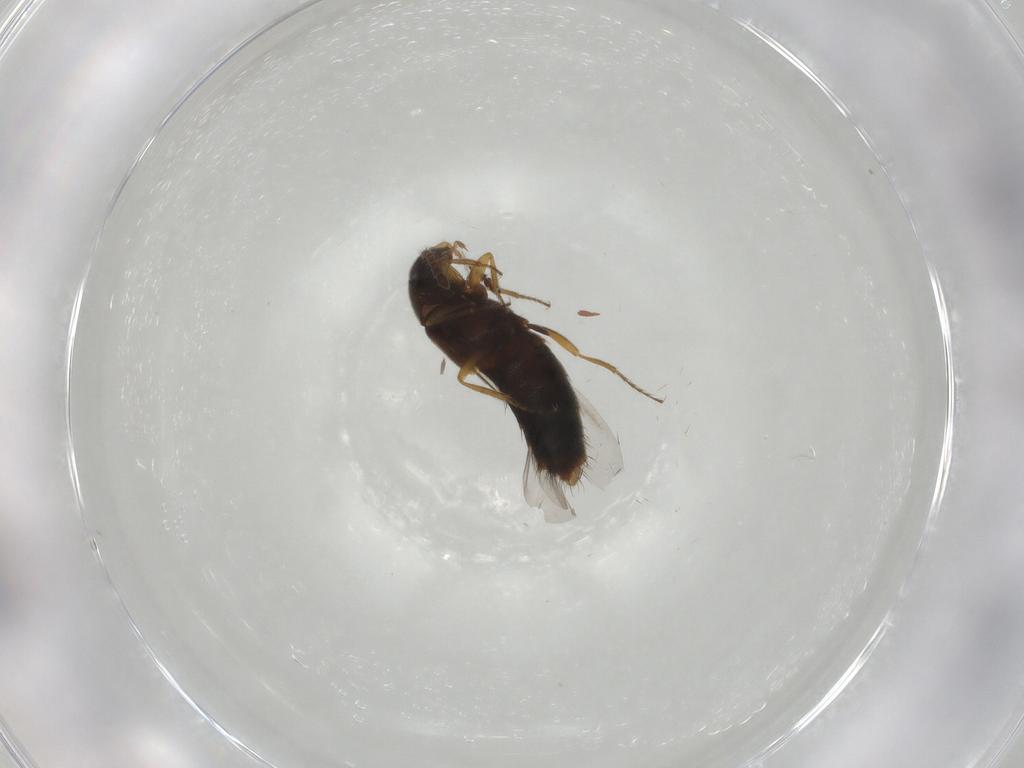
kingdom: Animalia
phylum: Arthropoda
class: Insecta
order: Coleoptera
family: Staphylinidae
